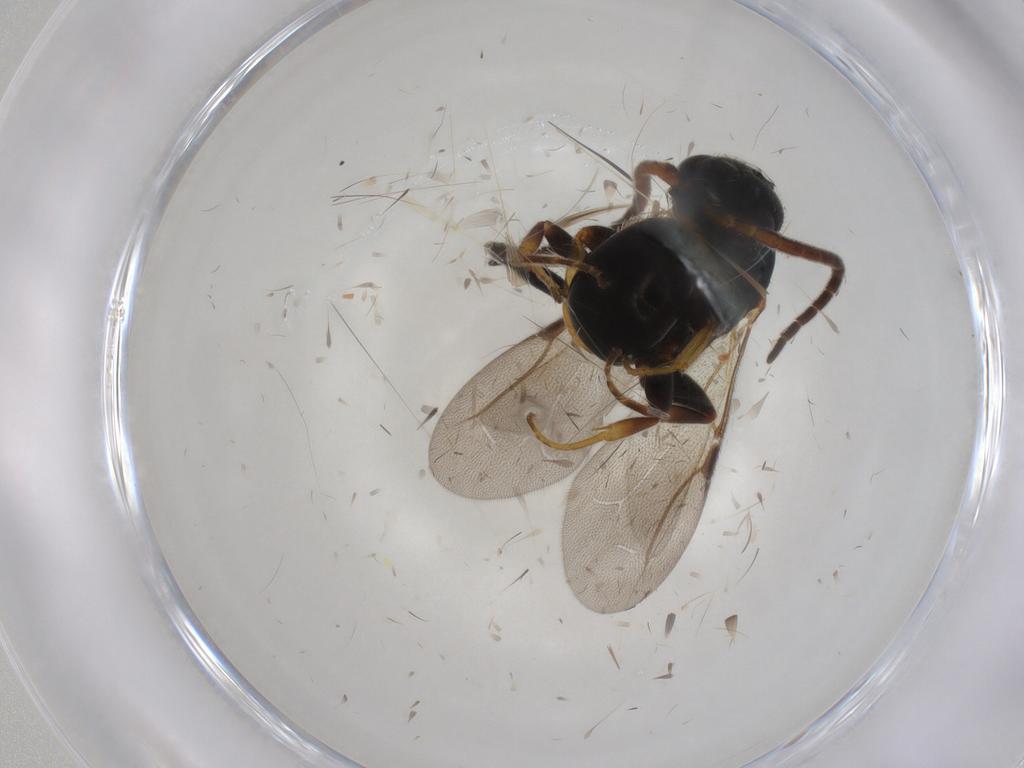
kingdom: Animalia
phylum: Arthropoda
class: Insecta
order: Hymenoptera
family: Bethylidae
